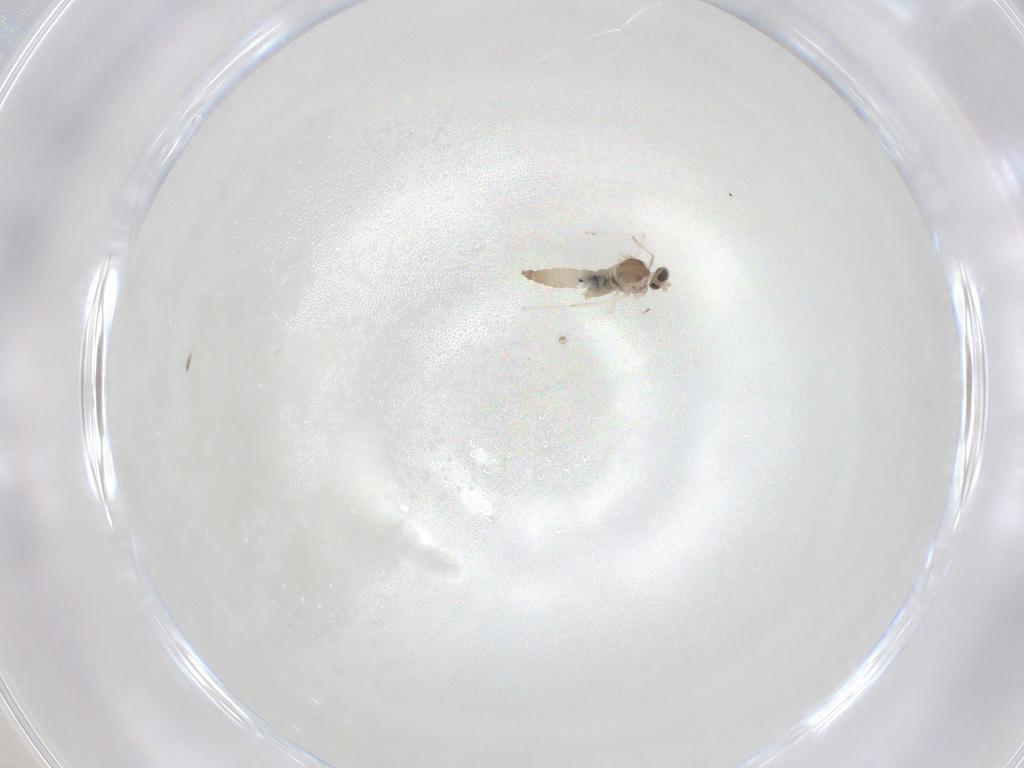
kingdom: Animalia
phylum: Arthropoda
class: Insecta
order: Diptera
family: Cecidomyiidae
